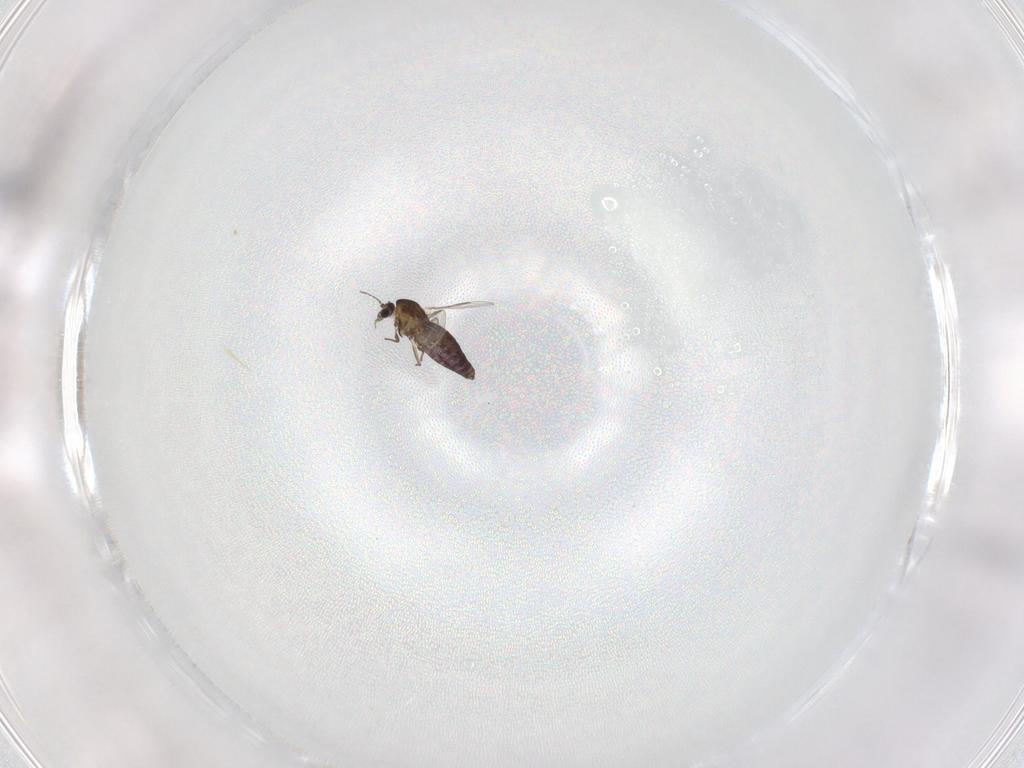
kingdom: Animalia
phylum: Arthropoda
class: Insecta
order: Diptera
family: Chironomidae
